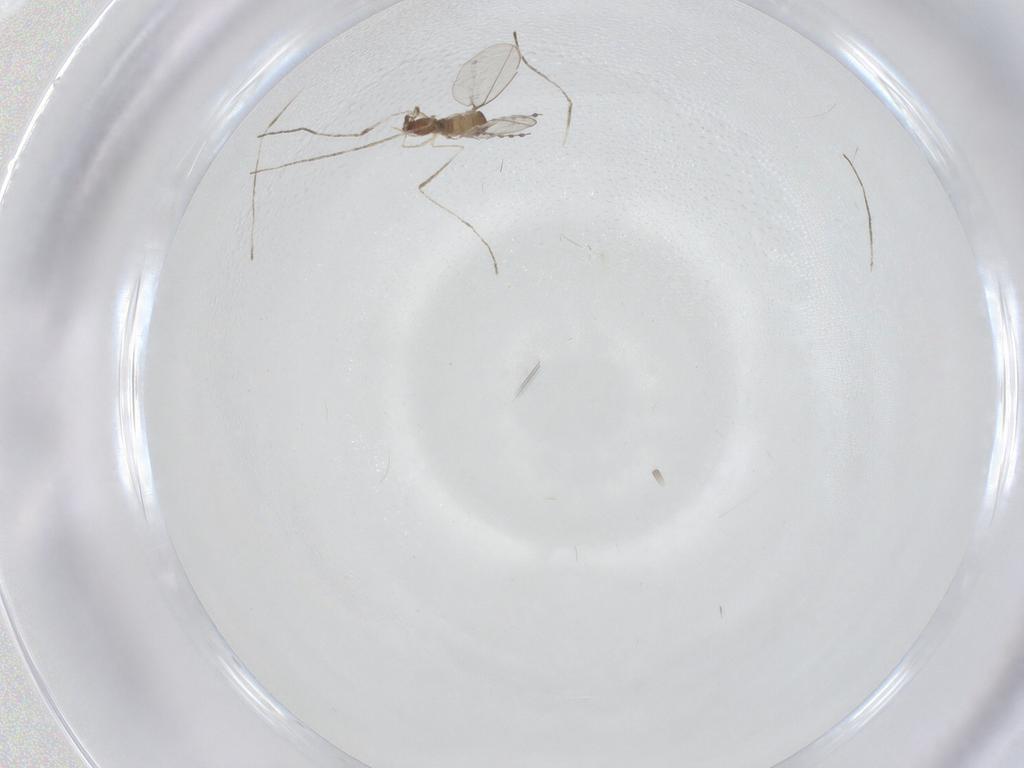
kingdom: Animalia
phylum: Arthropoda
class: Insecta
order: Diptera
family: Cecidomyiidae
